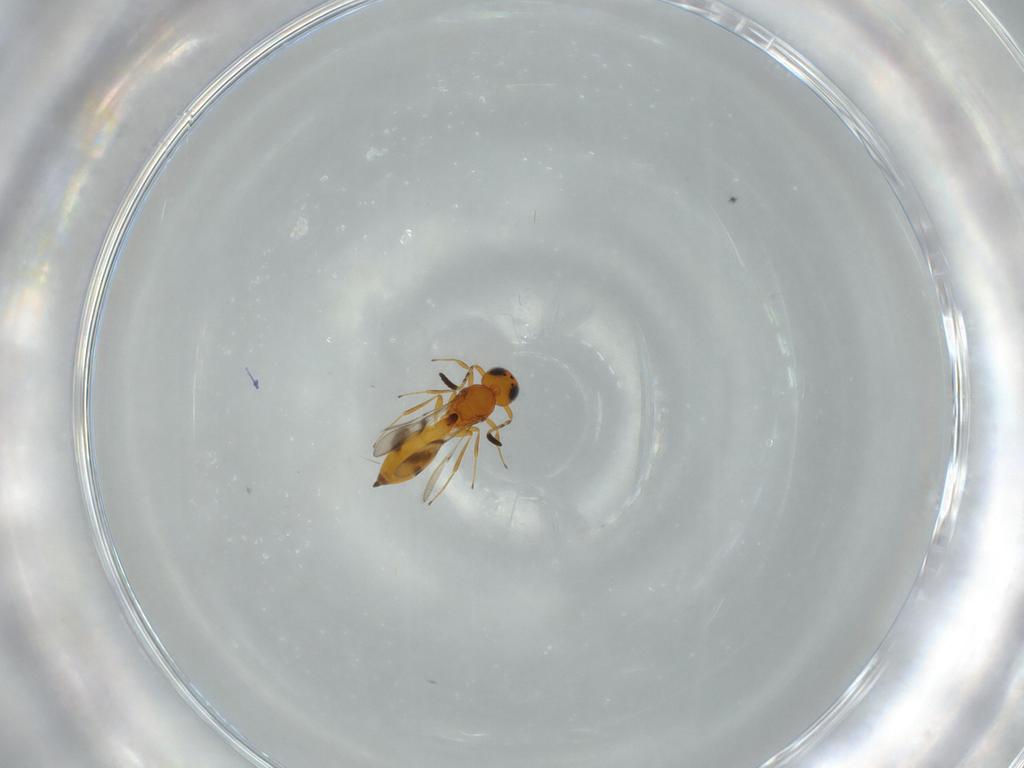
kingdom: Animalia
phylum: Arthropoda
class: Insecta
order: Hymenoptera
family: Scelionidae
